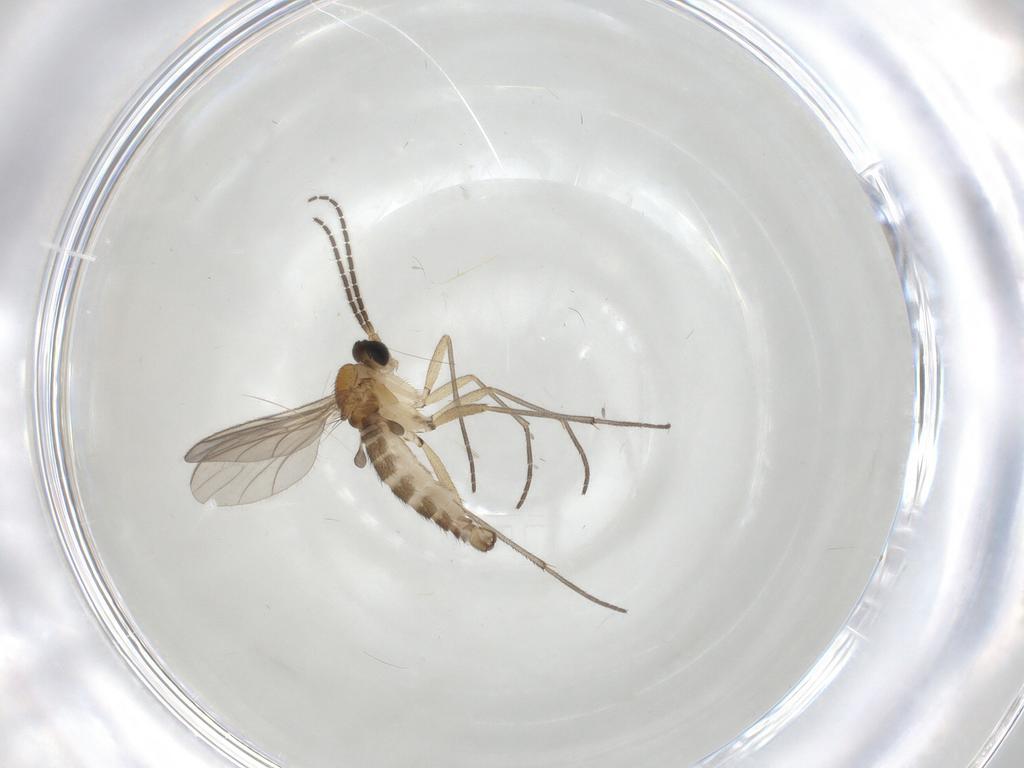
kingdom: Animalia
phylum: Arthropoda
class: Insecta
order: Diptera
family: Sciaridae
